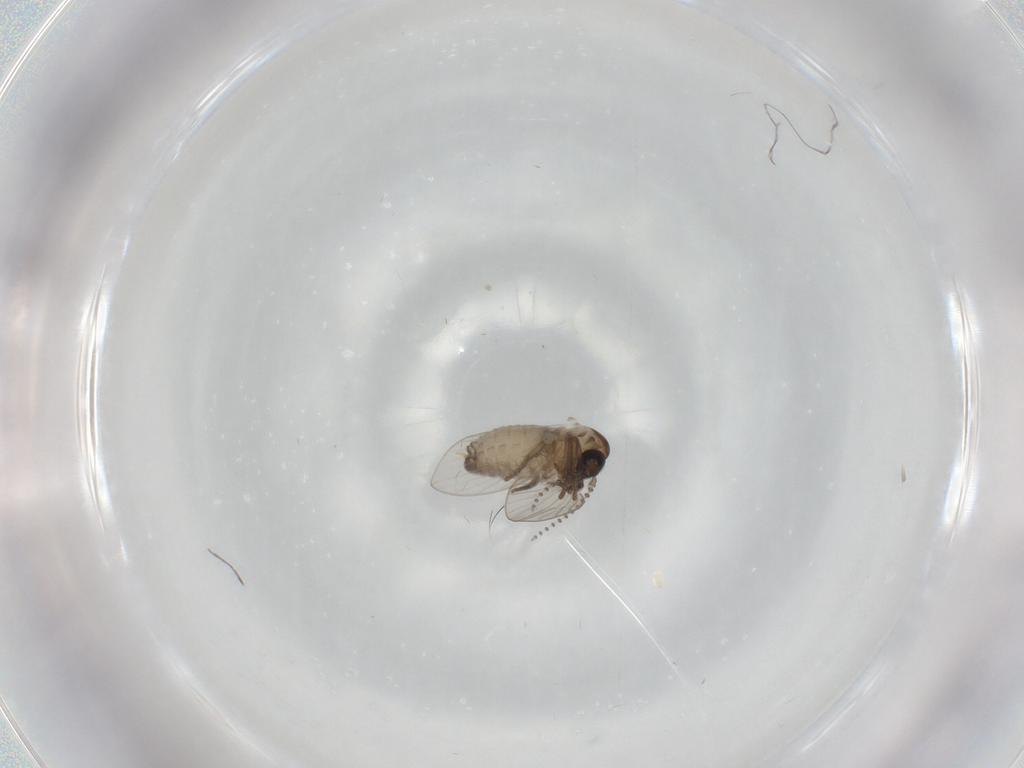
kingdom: Animalia
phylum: Arthropoda
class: Insecta
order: Diptera
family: Psychodidae
